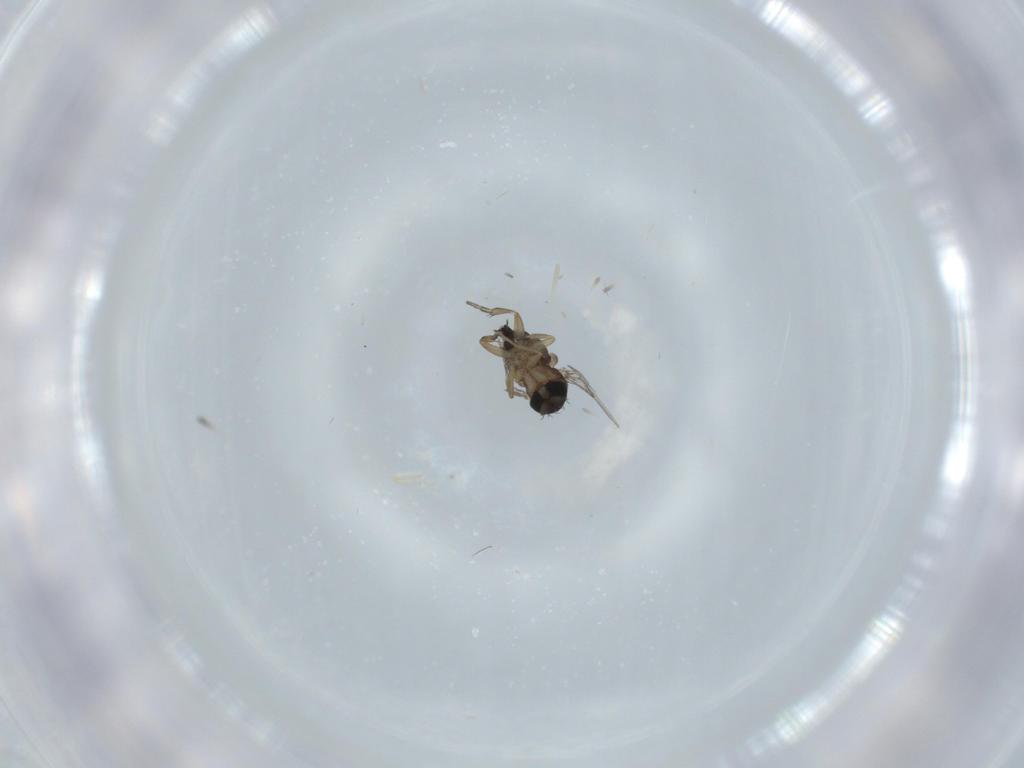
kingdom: Animalia
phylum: Arthropoda
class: Insecta
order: Diptera
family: Phoridae
